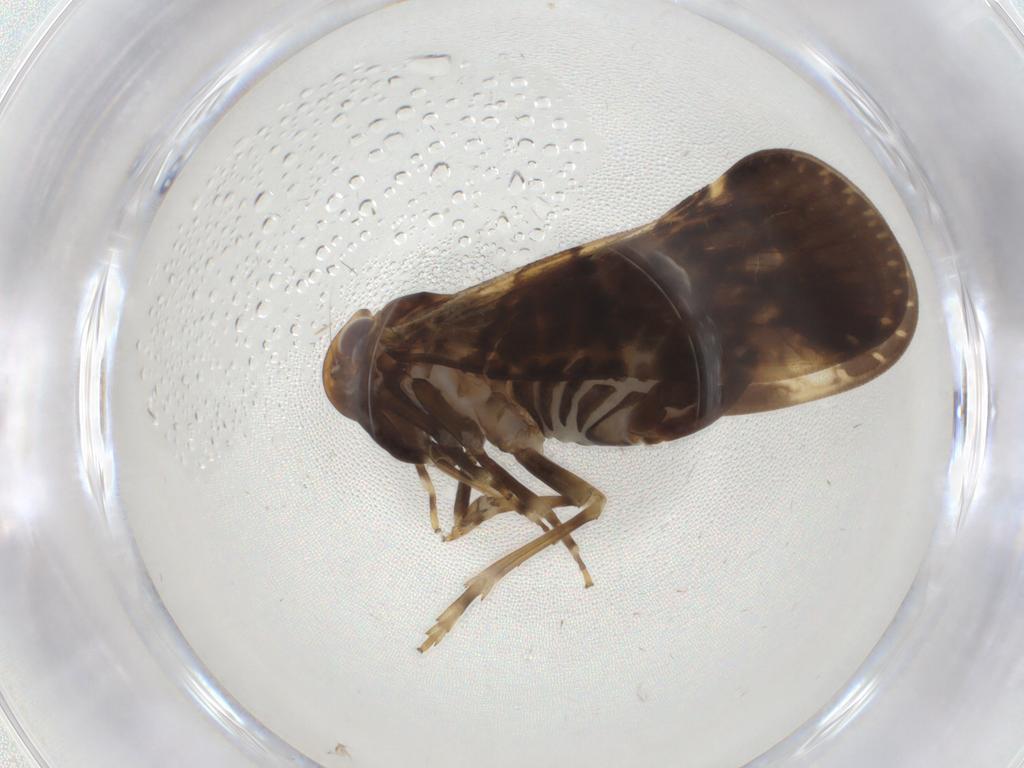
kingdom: Animalia
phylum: Arthropoda
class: Insecta
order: Hemiptera
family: Cixiidae
